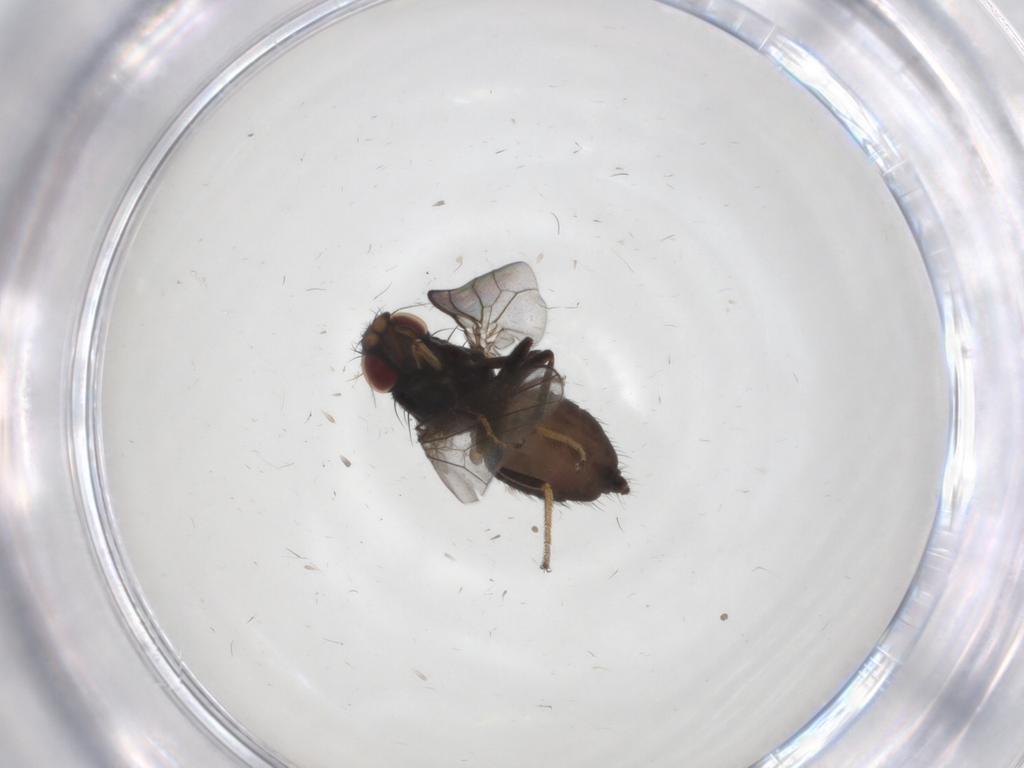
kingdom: Animalia
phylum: Arthropoda
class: Insecta
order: Diptera
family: Milichiidae
